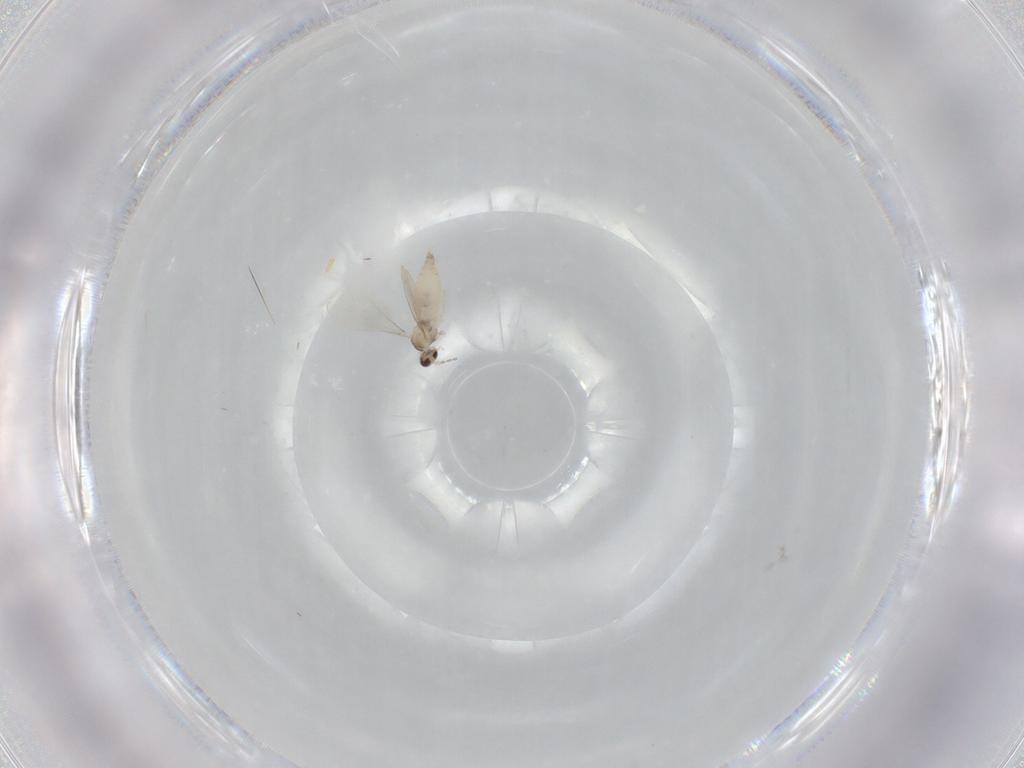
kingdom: Animalia
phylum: Arthropoda
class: Insecta
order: Diptera
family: Cecidomyiidae
